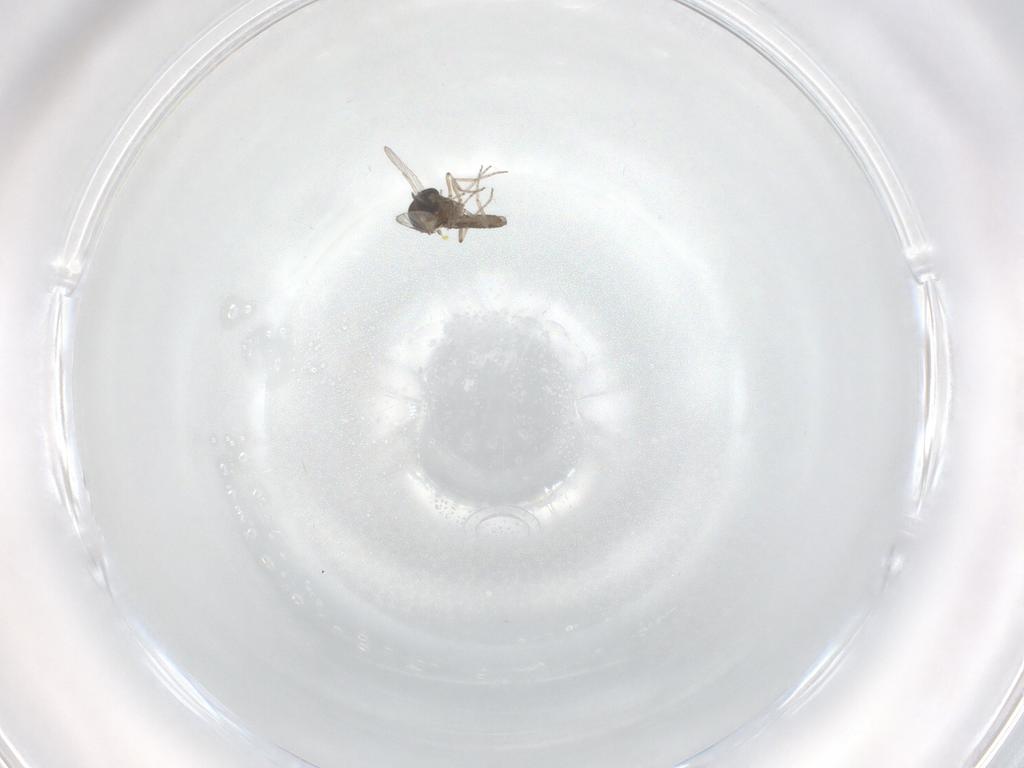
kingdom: Animalia
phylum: Arthropoda
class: Insecta
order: Diptera
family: Ceratopogonidae
